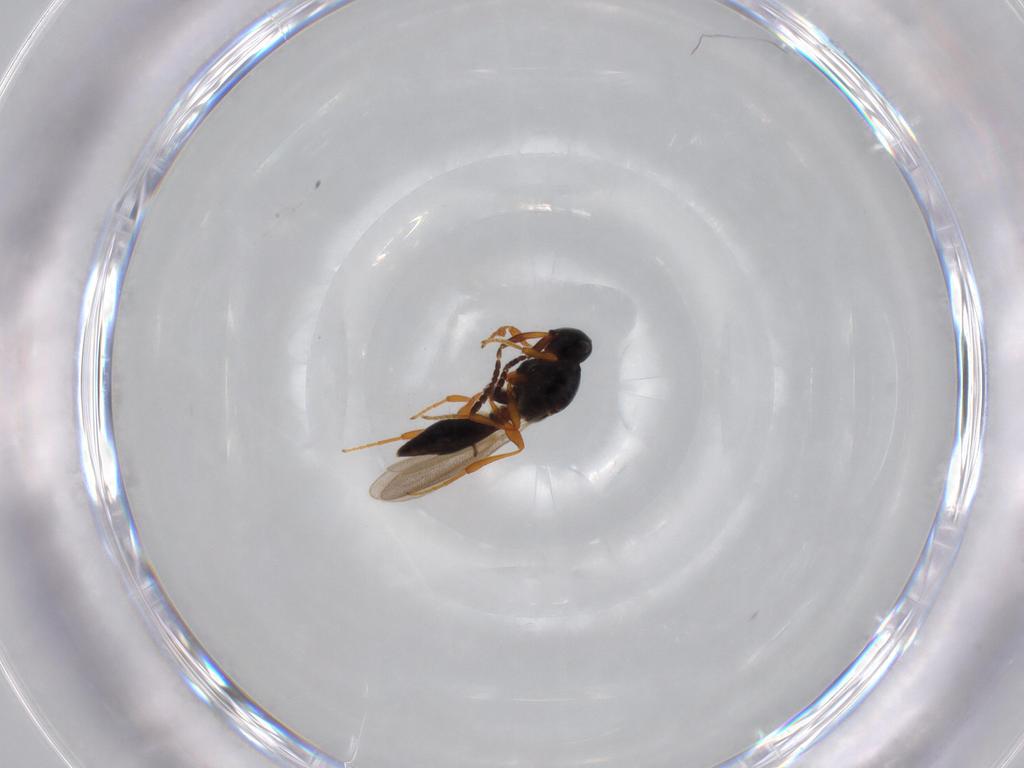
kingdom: Animalia
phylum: Arthropoda
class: Insecta
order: Hymenoptera
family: Platygastridae
